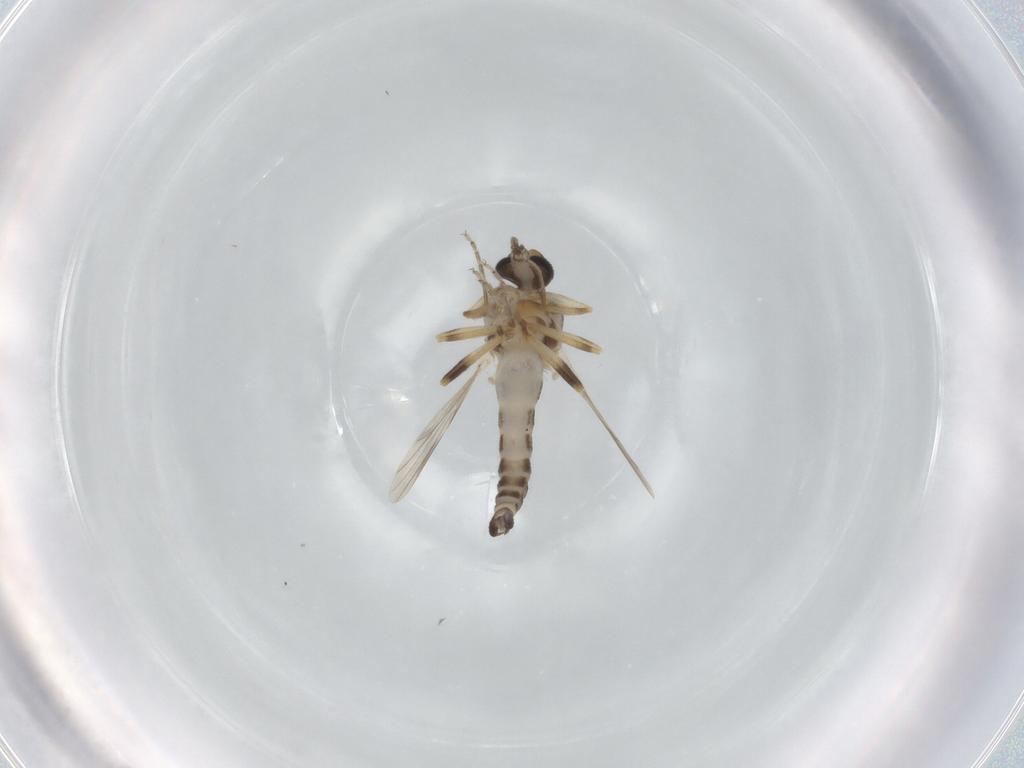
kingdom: Animalia
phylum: Arthropoda
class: Insecta
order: Diptera
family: Ceratopogonidae
